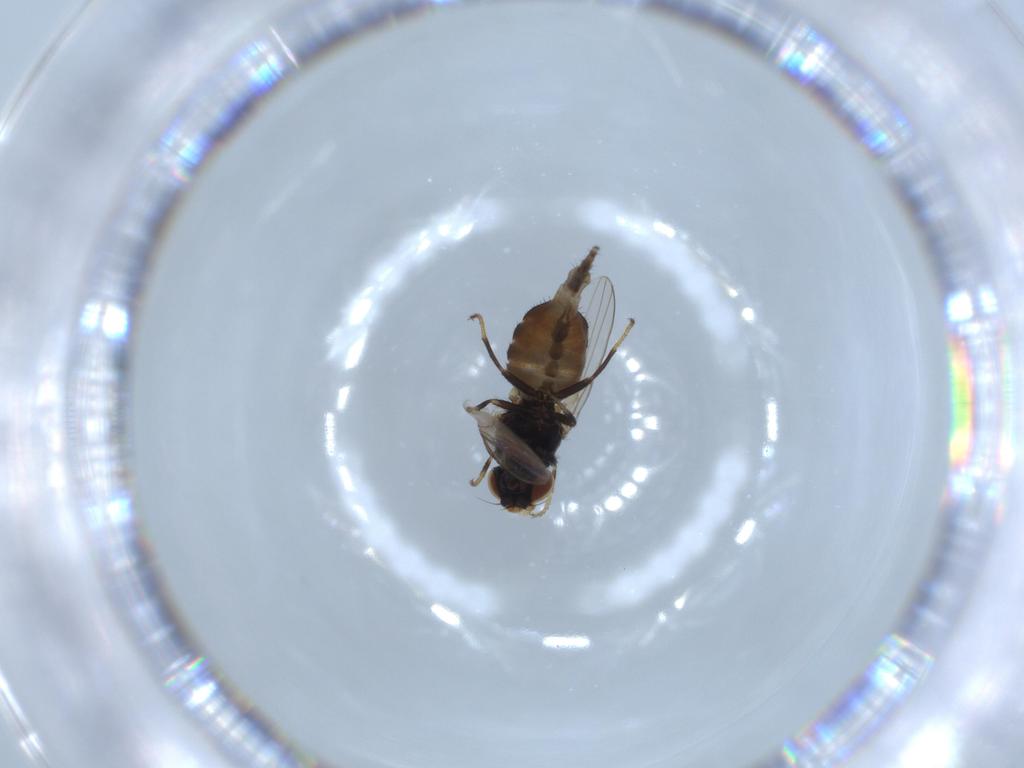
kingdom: Animalia
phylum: Arthropoda
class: Insecta
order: Diptera
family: Milichiidae
